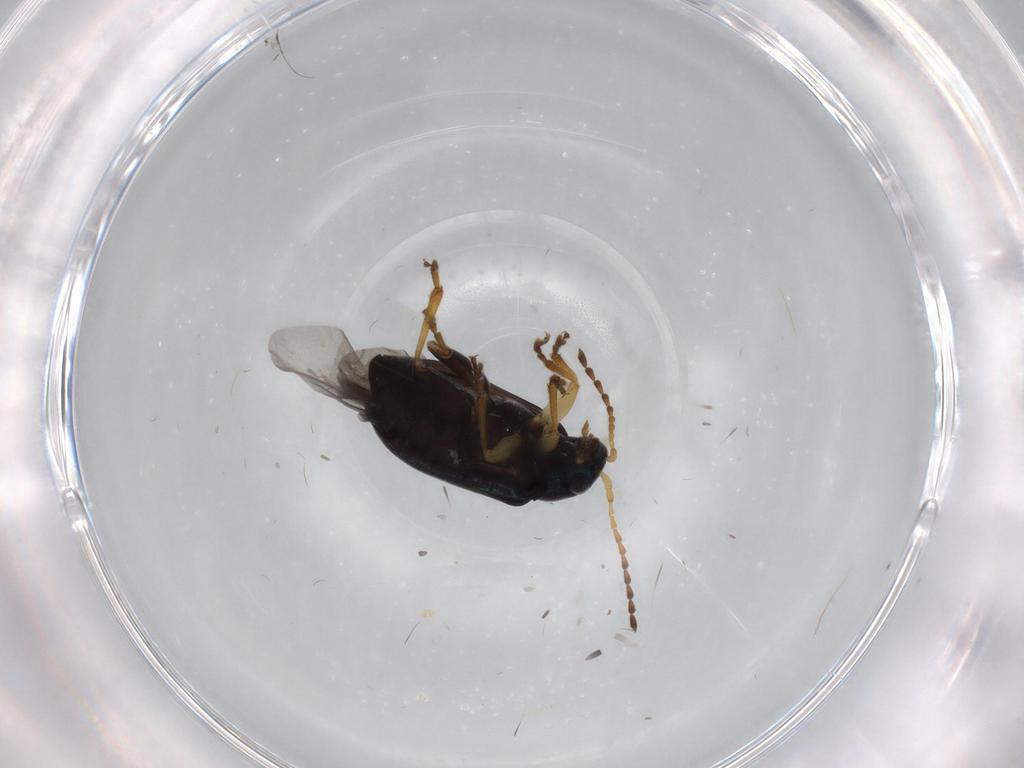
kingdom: Animalia
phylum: Arthropoda
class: Insecta
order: Coleoptera
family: Chrysomelidae
